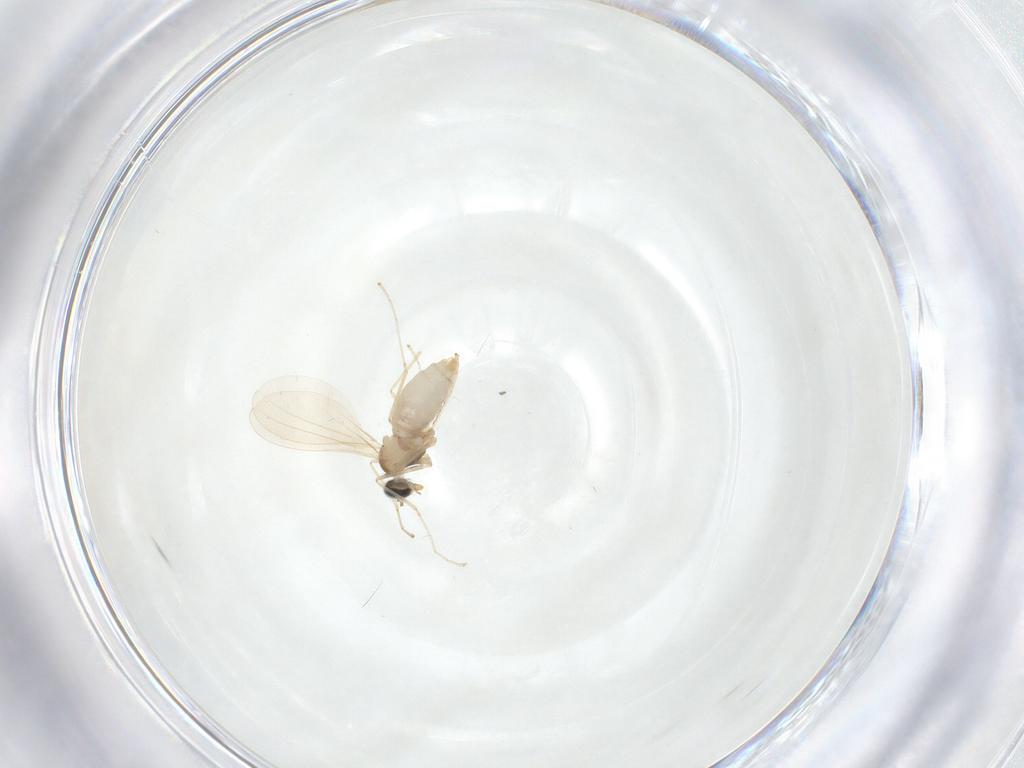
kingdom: Animalia
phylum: Arthropoda
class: Insecta
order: Diptera
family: Cecidomyiidae
